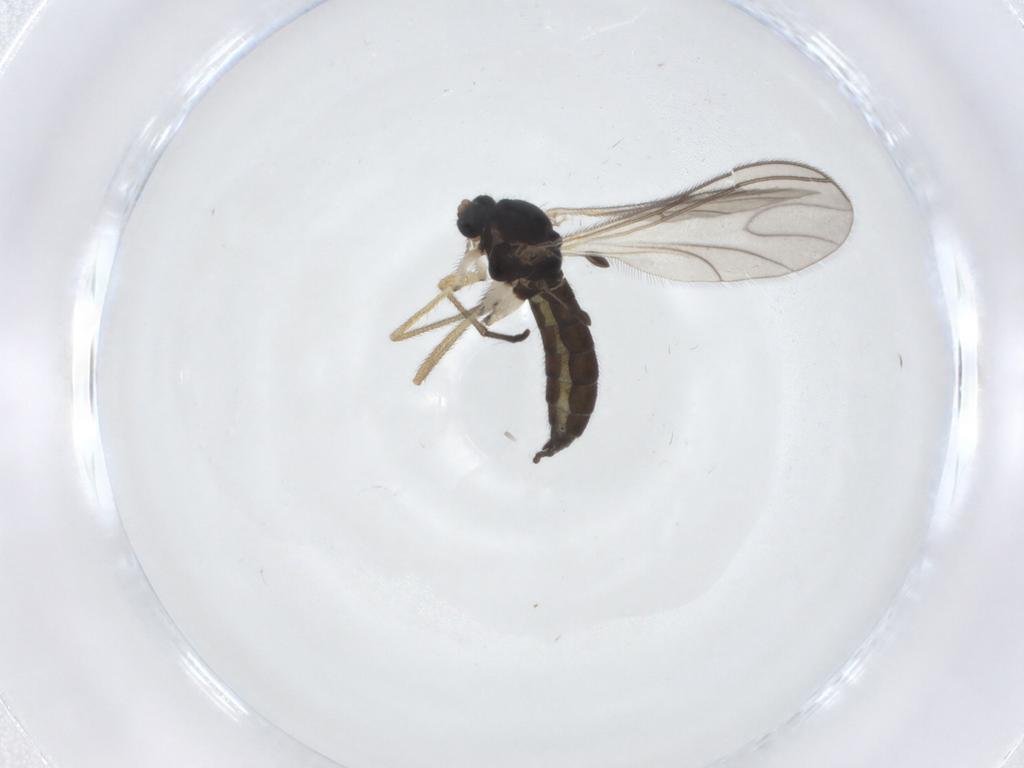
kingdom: Animalia
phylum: Arthropoda
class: Insecta
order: Diptera
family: Sciaridae
